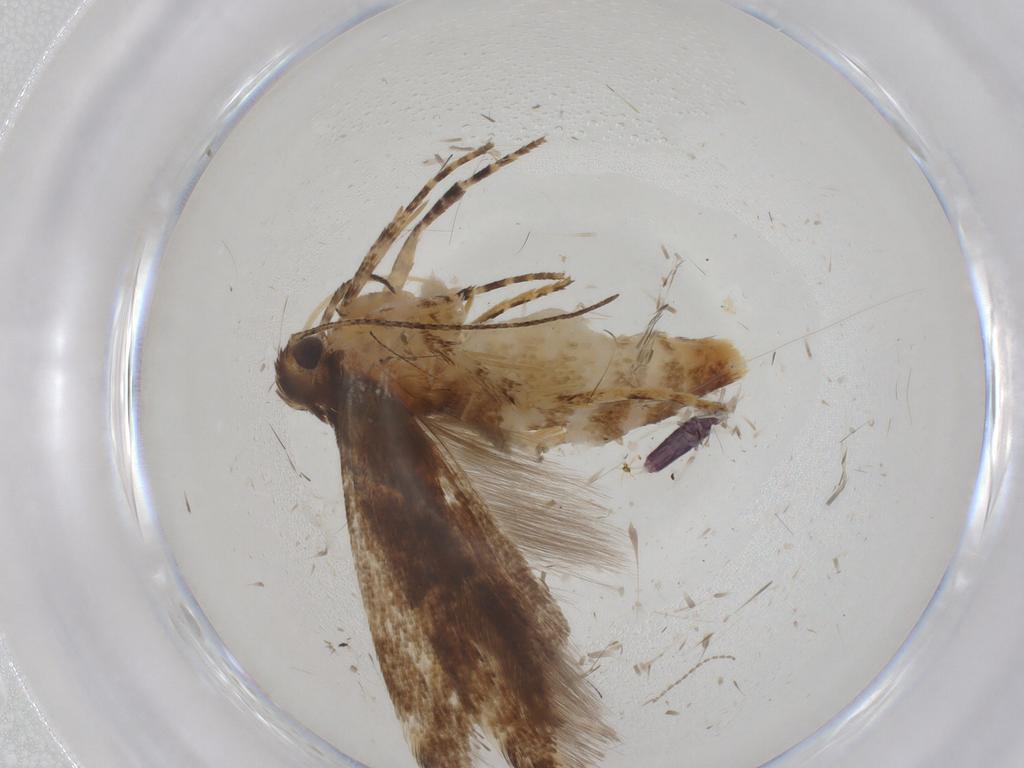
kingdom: Animalia
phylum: Arthropoda
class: Insecta
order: Lepidoptera
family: Gelechiidae
